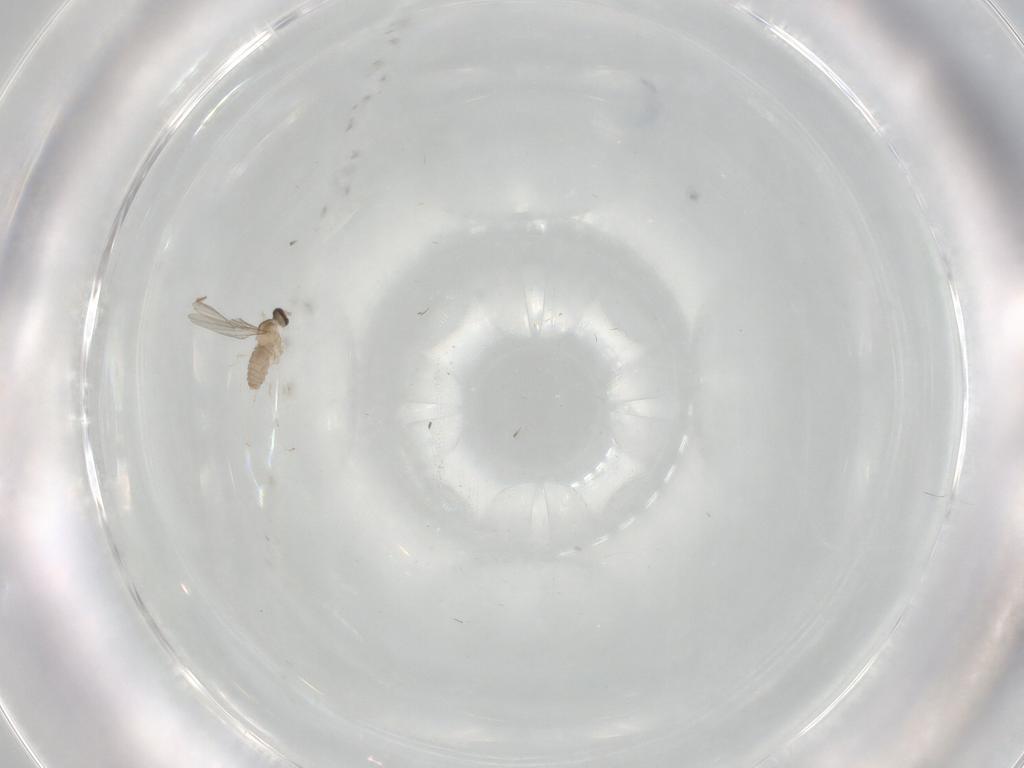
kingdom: Animalia
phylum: Arthropoda
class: Insecta
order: Diptera
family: Cecidomyiidae
